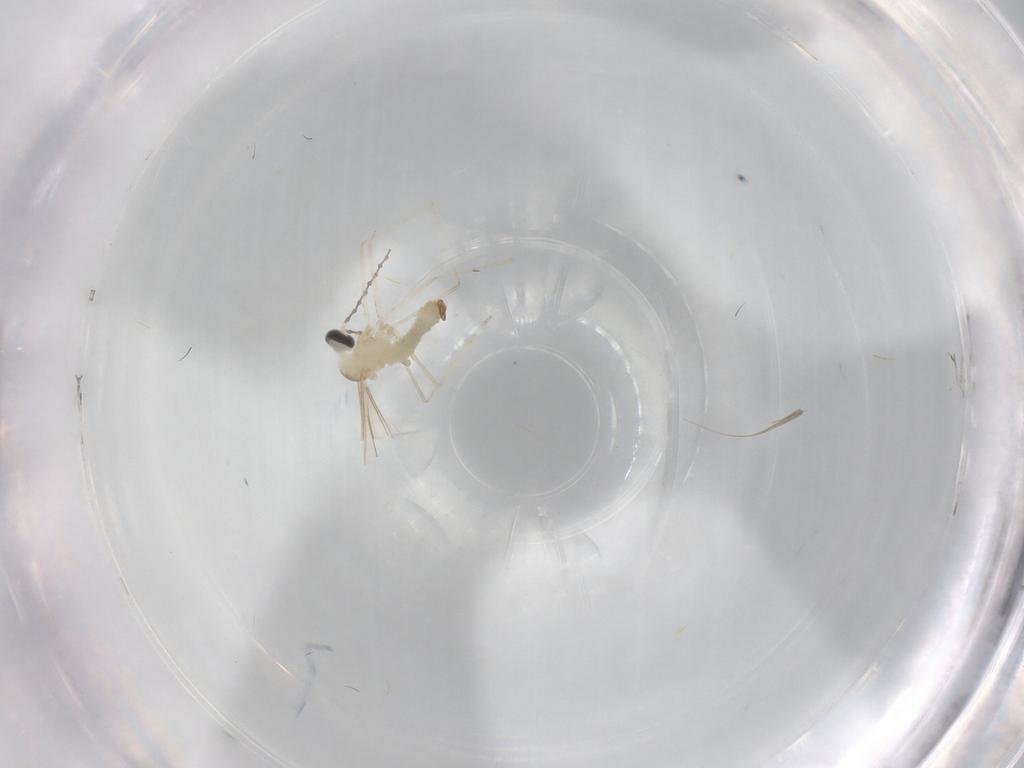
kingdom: Animalia
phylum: Arthropoda
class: Insecta
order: Diptera
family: Cecidomyiidae
